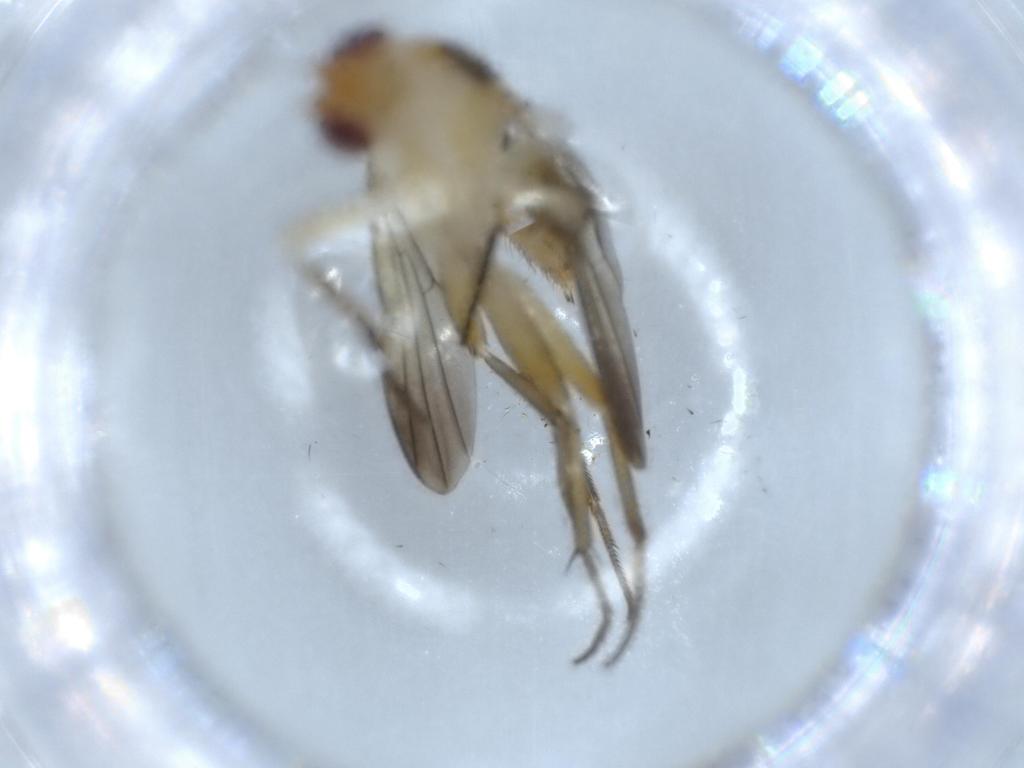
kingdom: Animalia
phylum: Arthropoda
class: Insecta
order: Diptera
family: Clusiidae
